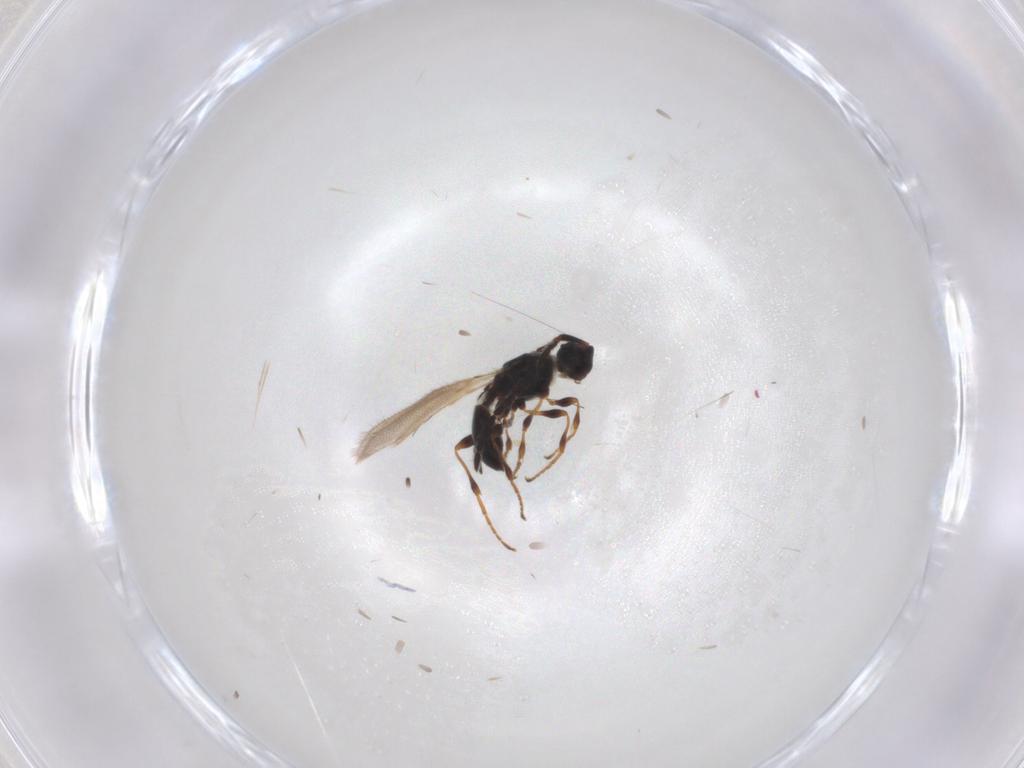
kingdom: Animalia
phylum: Arthropoda
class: Insecta
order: Hymenoptera
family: Diapriidae
